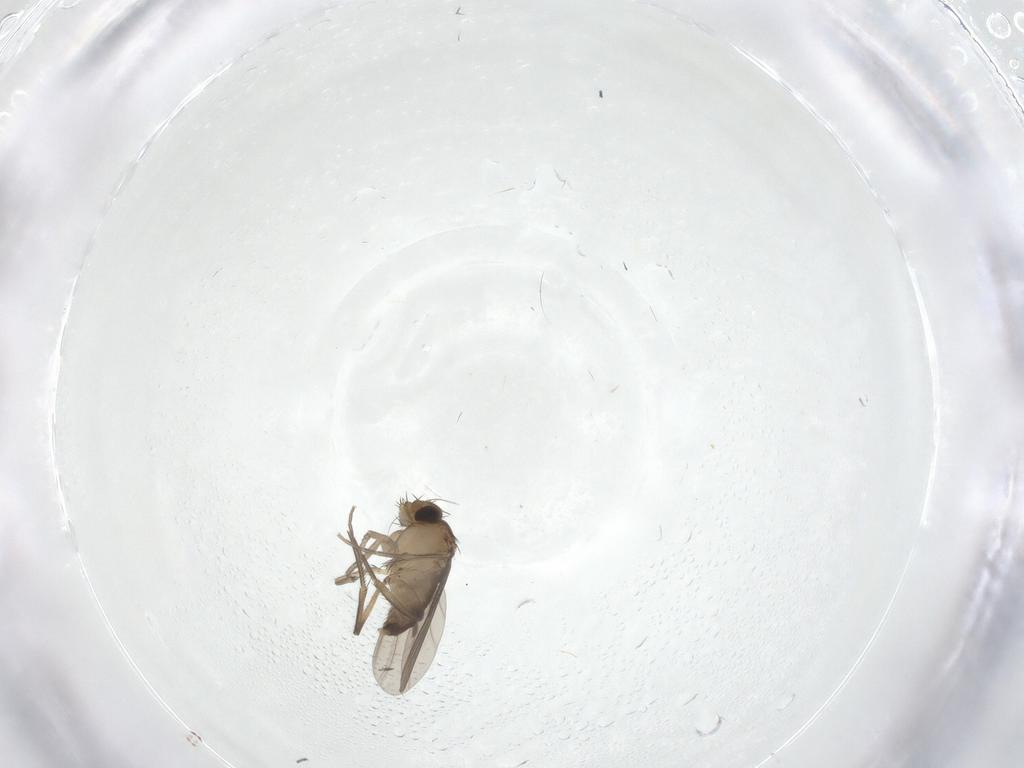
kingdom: Animalia
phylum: Arthropoda
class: Insecta
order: Diptera
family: Phoridae
